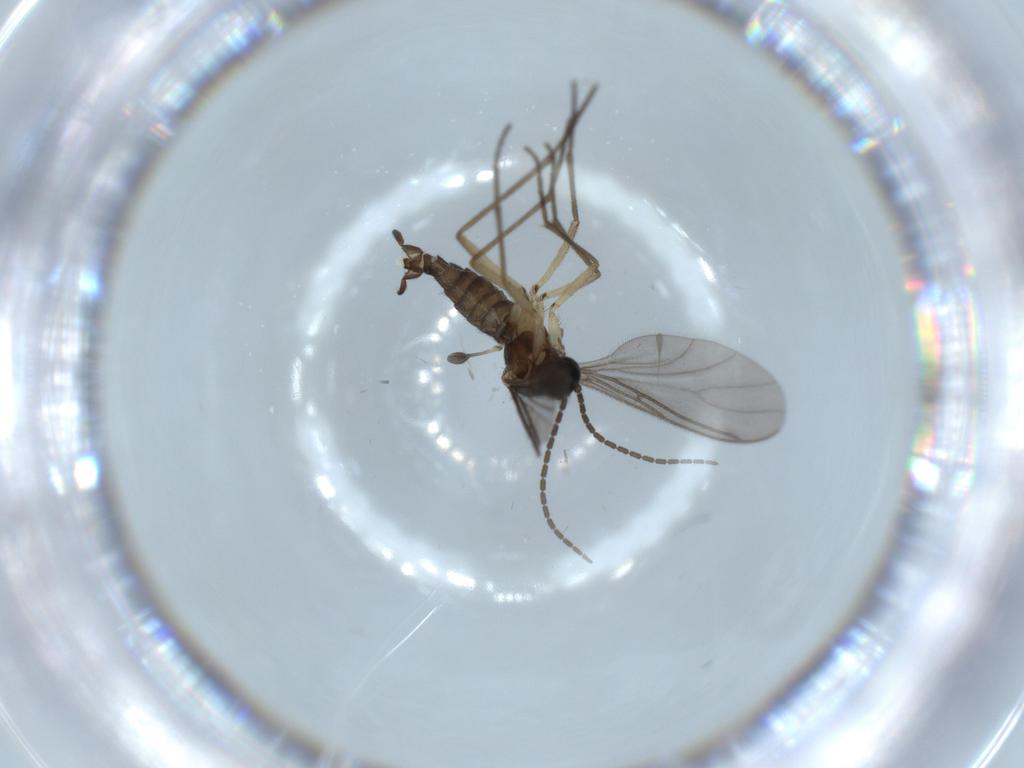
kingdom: Animalia
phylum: Arthropoda
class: Insecta
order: Diptera
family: Sciaridae
